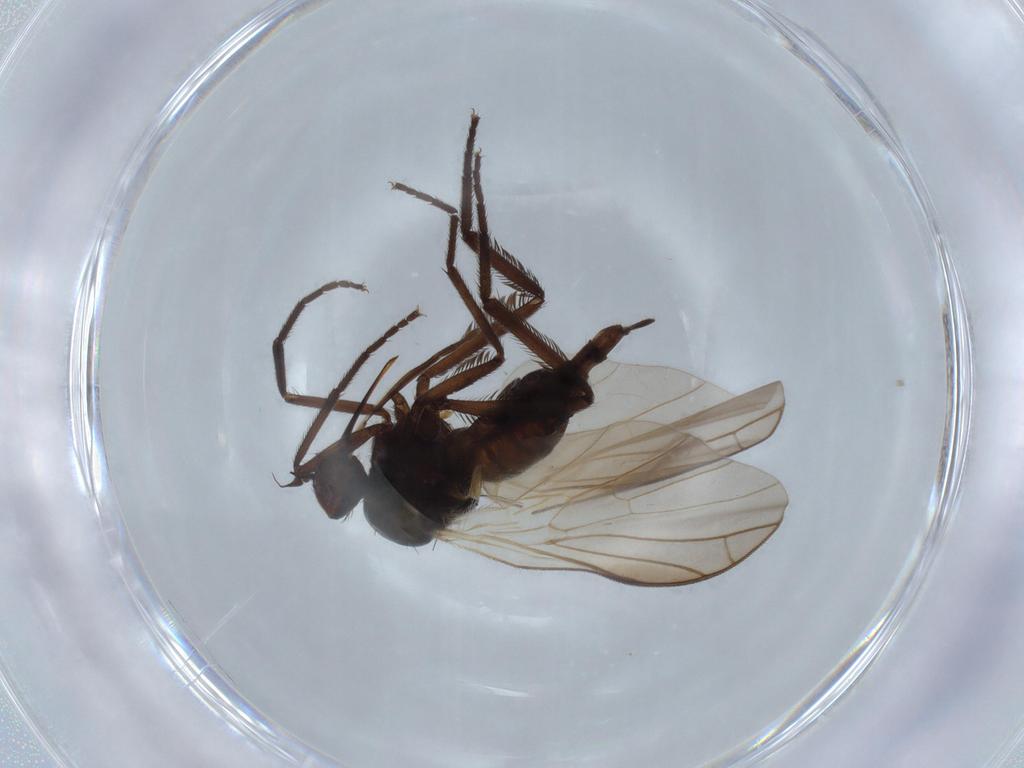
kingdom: Animalia
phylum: Arthropoda
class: Insecta
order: Diptera
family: Empididae
